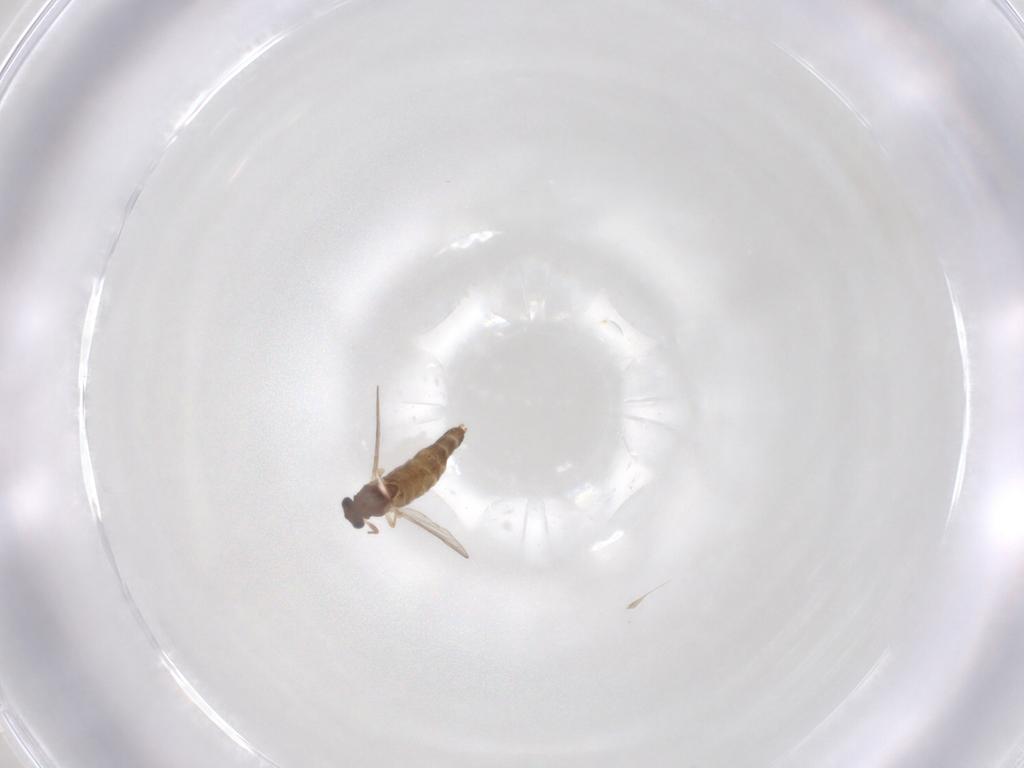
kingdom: Animalia
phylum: Arthropoda
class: Insecta
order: Diptera
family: Chironomidae
